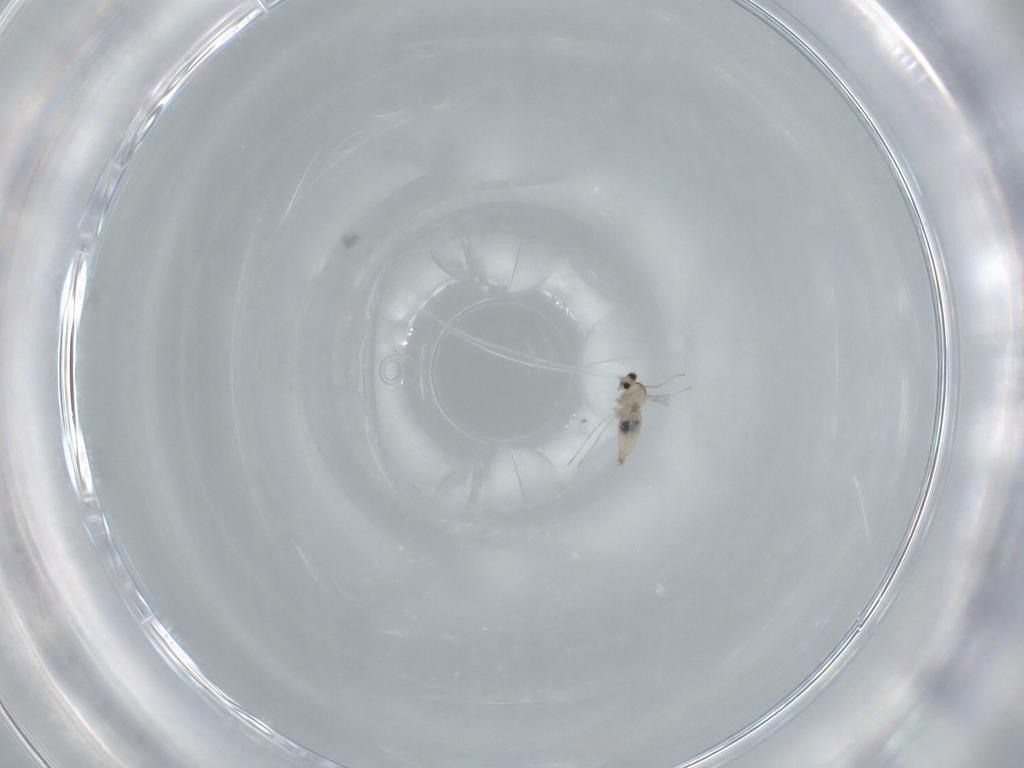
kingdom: Animalia
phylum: Arthropoda
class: Insecta
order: Diptera
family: Cecidomyiidae
